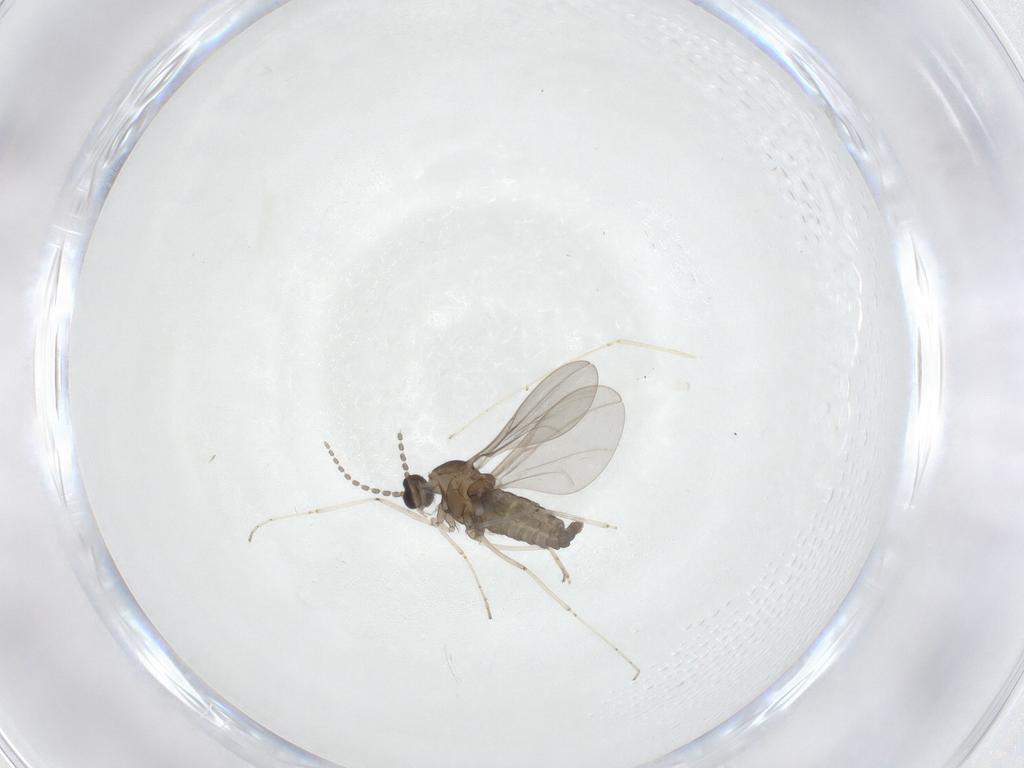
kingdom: Animalia
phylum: Arthropoda
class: Insecta
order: Diptera
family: Cecidomyiidae
